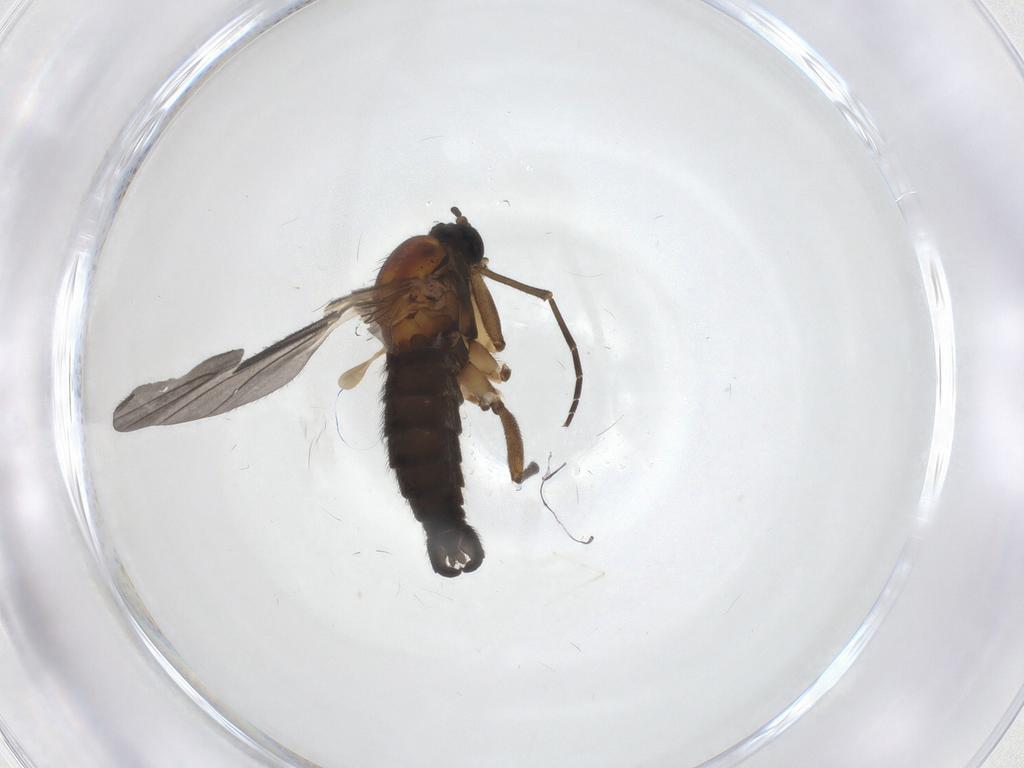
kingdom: Animalia
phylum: Arthropoda
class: Insecta
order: Diptera
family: Sciaridae
